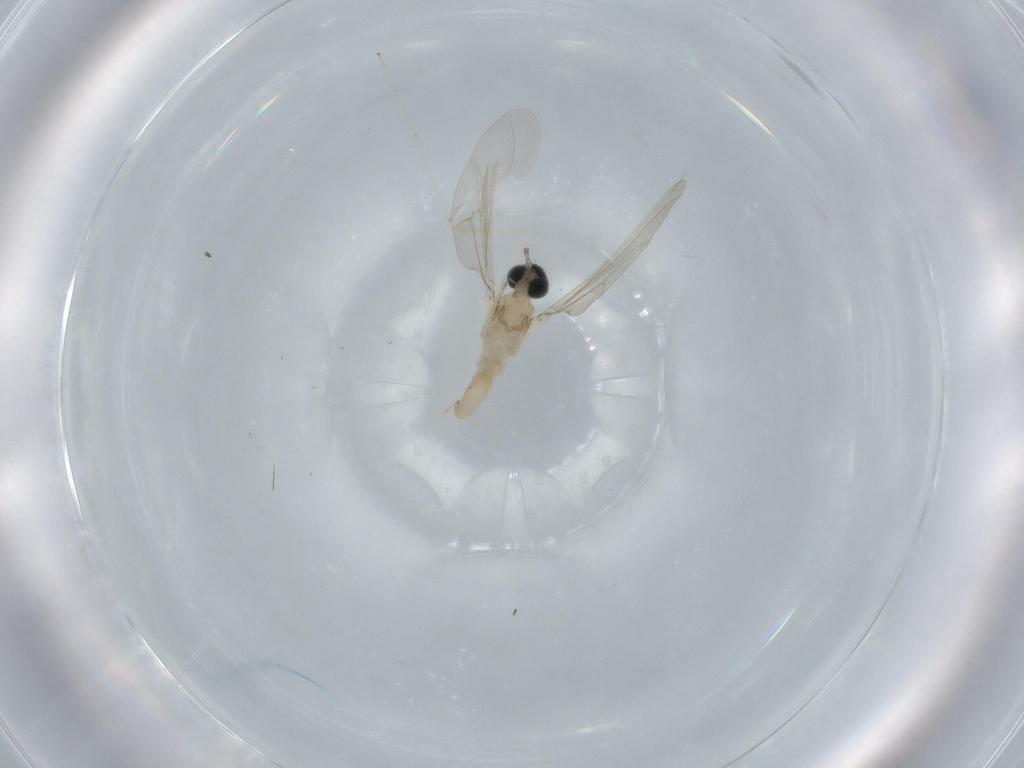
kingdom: Animalia
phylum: Arthropoda
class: Insecta
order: Diptera
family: Cecidomyiidae
